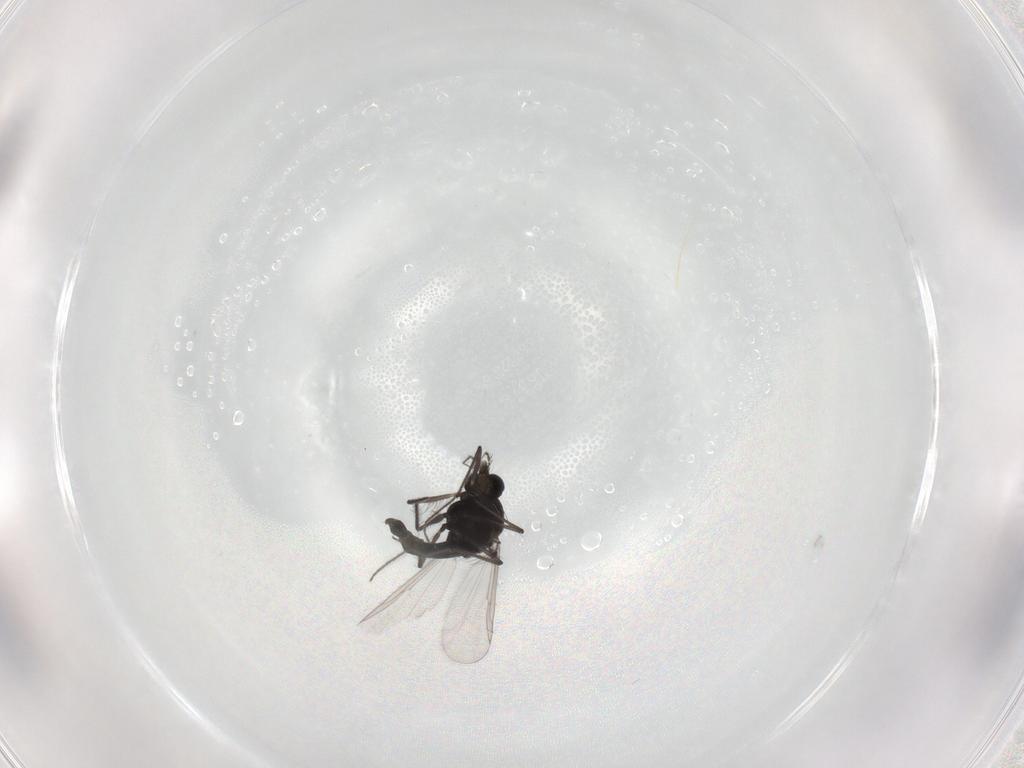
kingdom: Animalia
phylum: Arthropoda
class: Insecta
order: Diptera
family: Chironomidae
